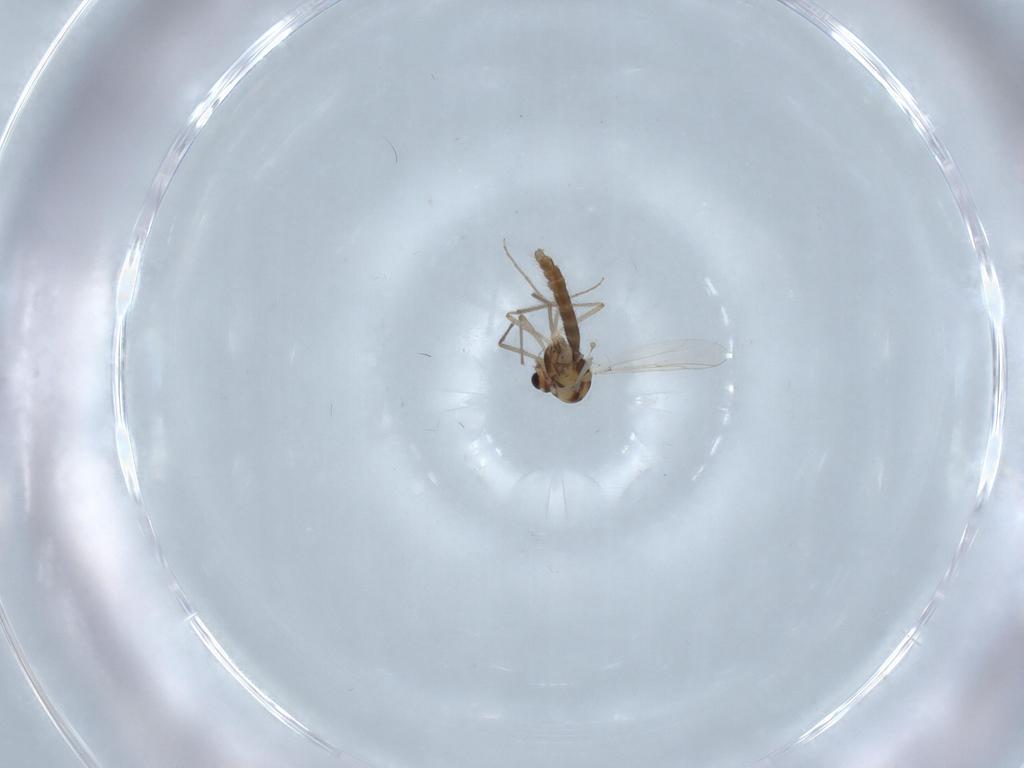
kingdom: Animalia
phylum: Arthropoda
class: Insecta
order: Diptera
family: Chironomidae
